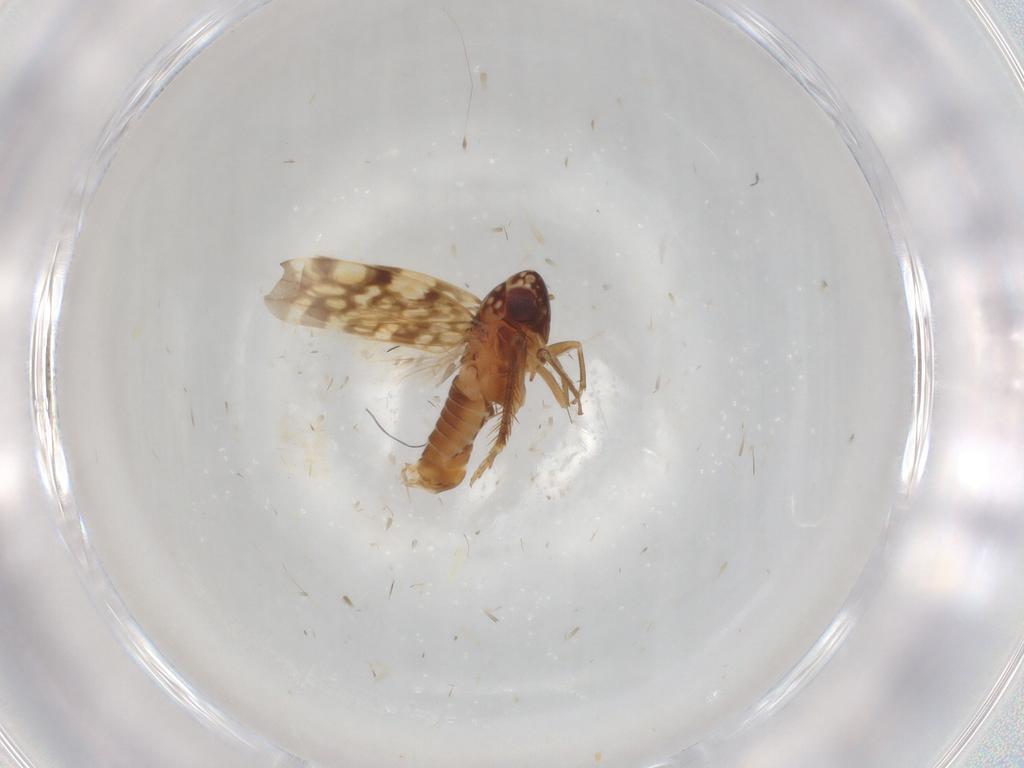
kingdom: Animalia
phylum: Arthropoda
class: Insecta
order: Hemiptera
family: Cicadellidae
